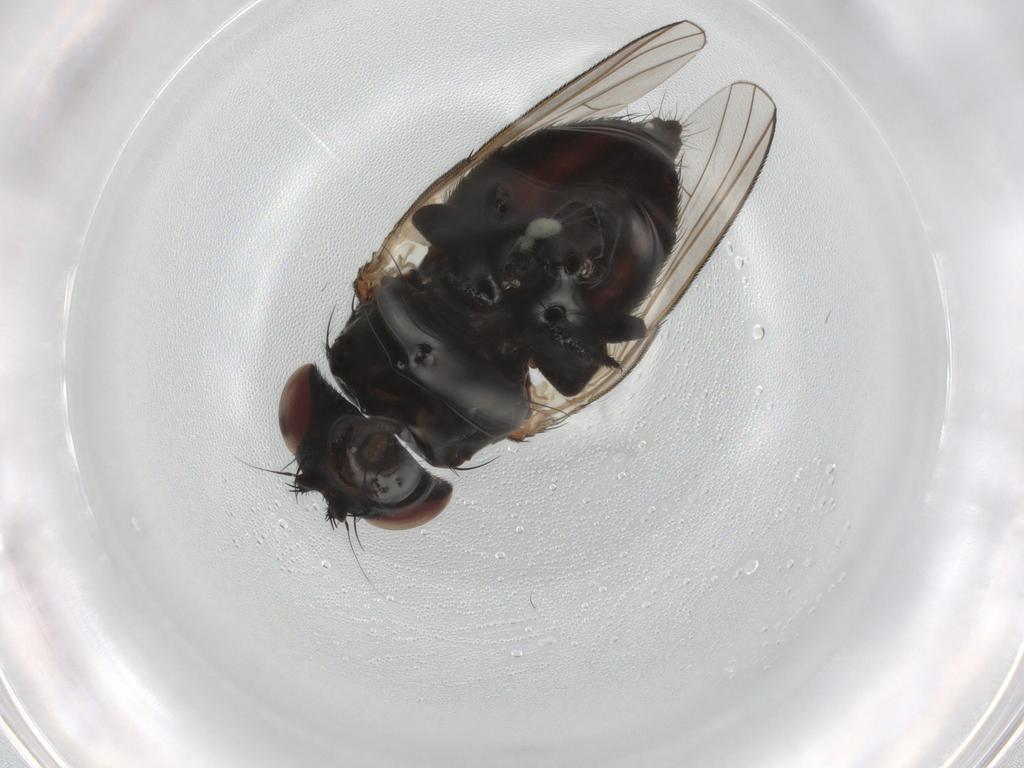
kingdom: Animalia
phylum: Arthropoda
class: Insecta
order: Diptera
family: Milichiidae
